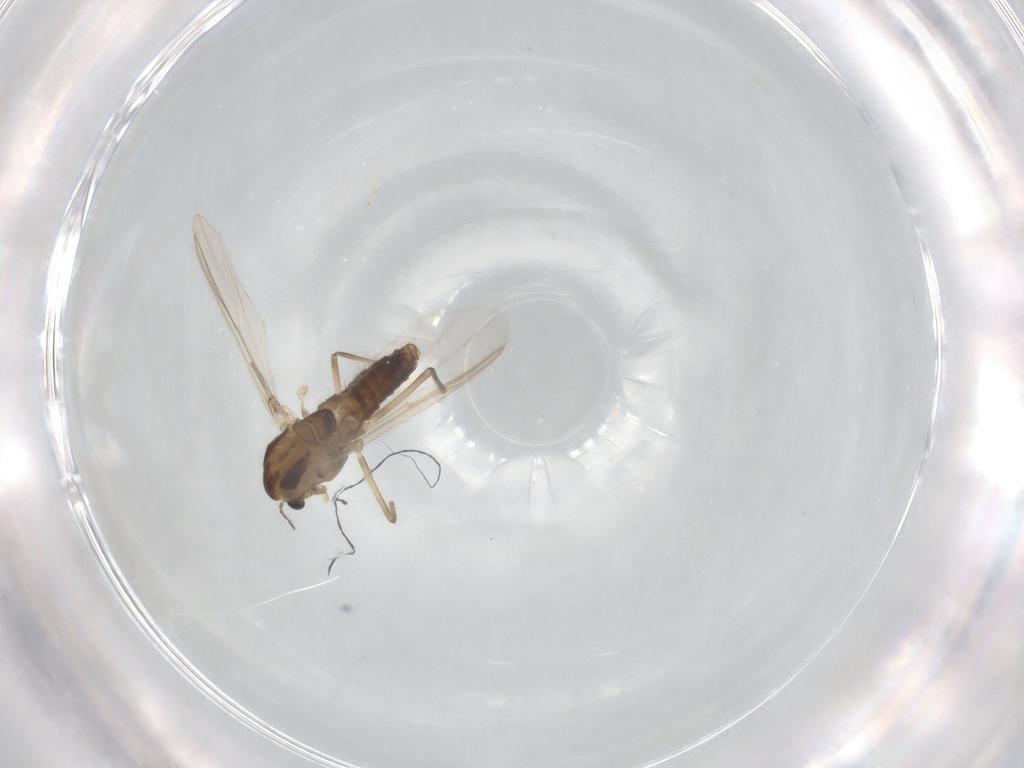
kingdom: Animalia
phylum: Arthropoda
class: Insecta
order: Diptera
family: Chironomidae
